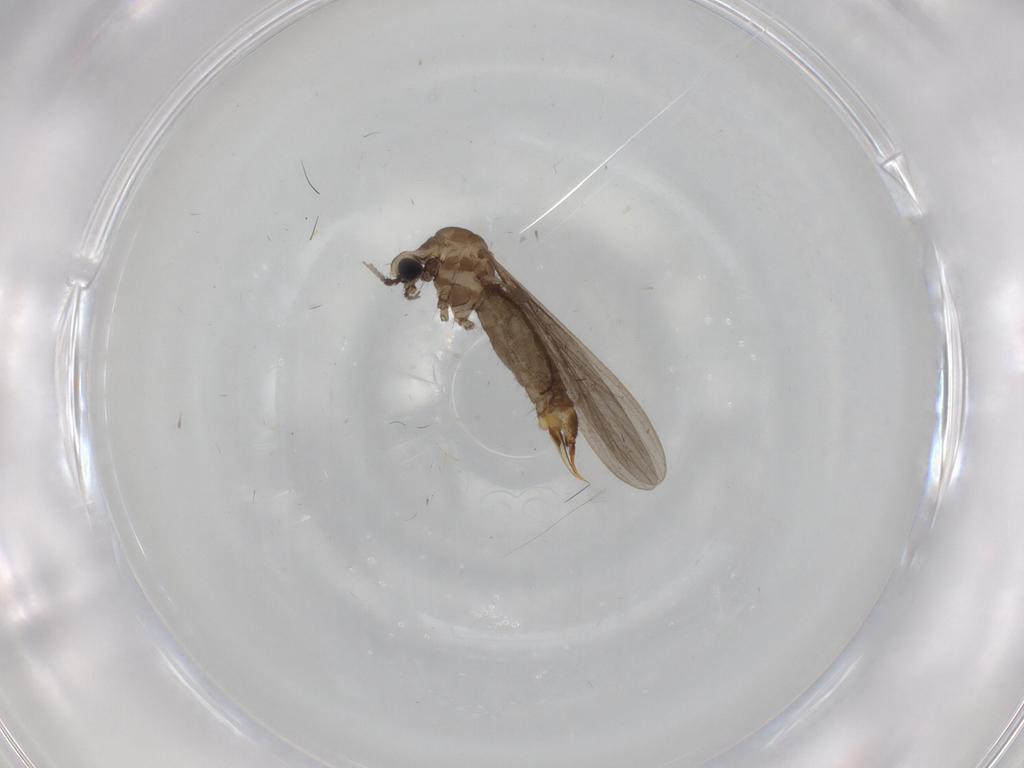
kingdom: Animalia
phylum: Arthropoda
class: Insecta
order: Diptera
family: Limoniidae
